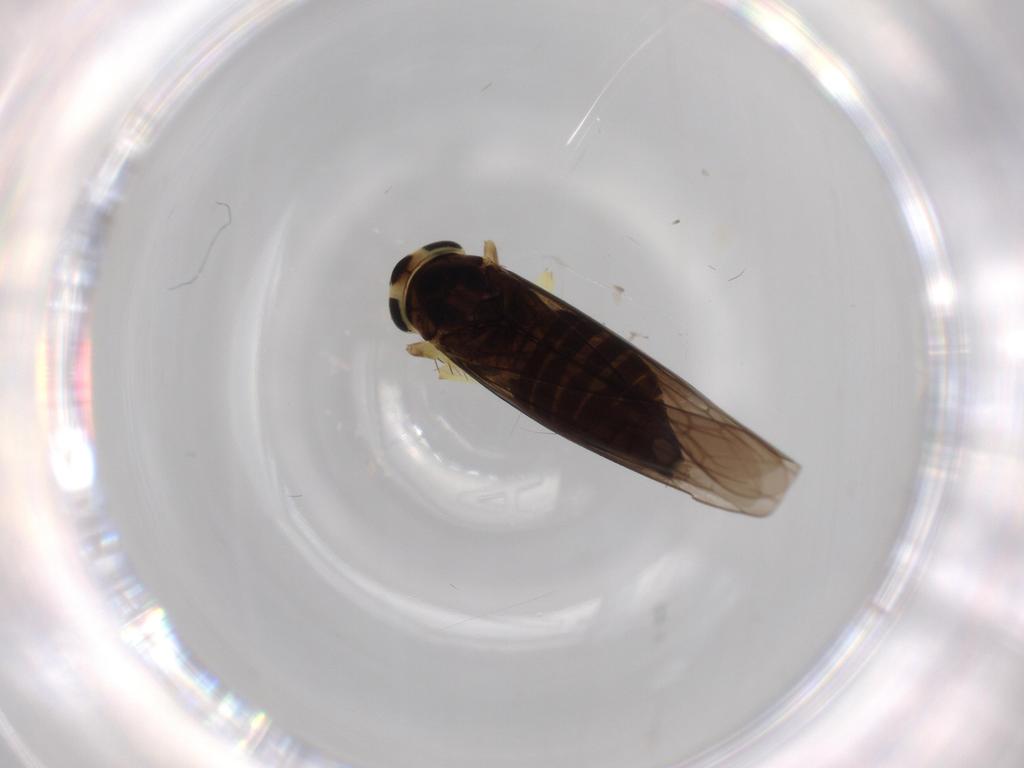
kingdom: Animalia
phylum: Arthropoda
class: Insecta
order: Hemiptera
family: Cicadellidae
